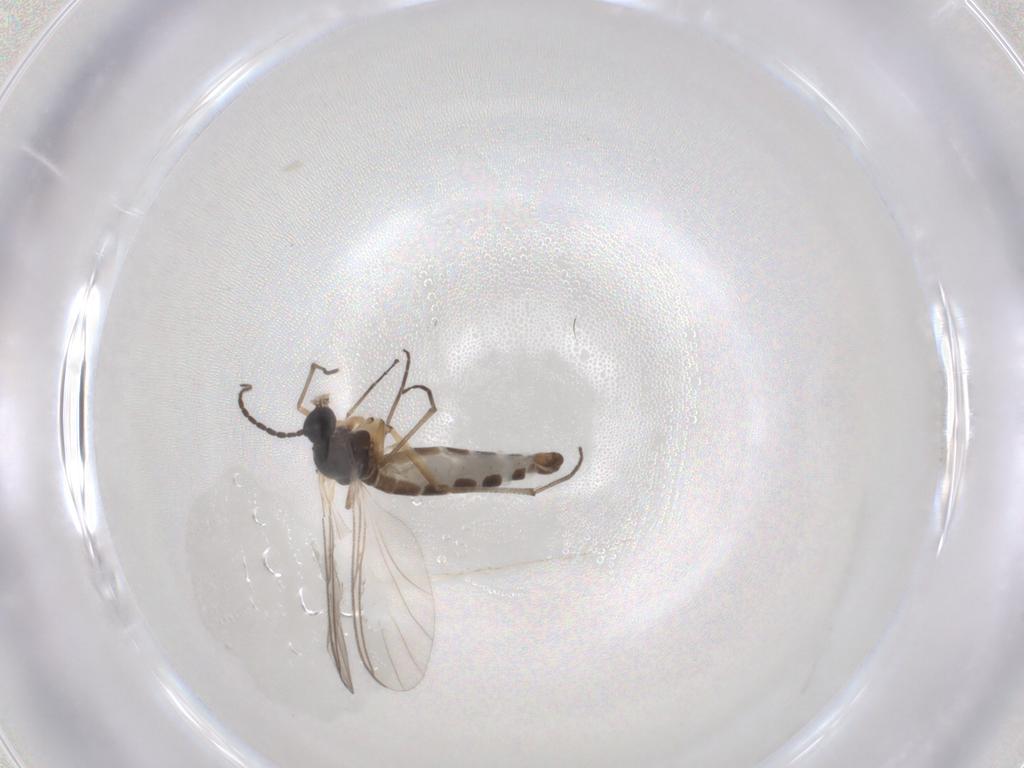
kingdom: Animalia
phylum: Arthropoda
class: Insecta
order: Diptera
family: Sciaridae
